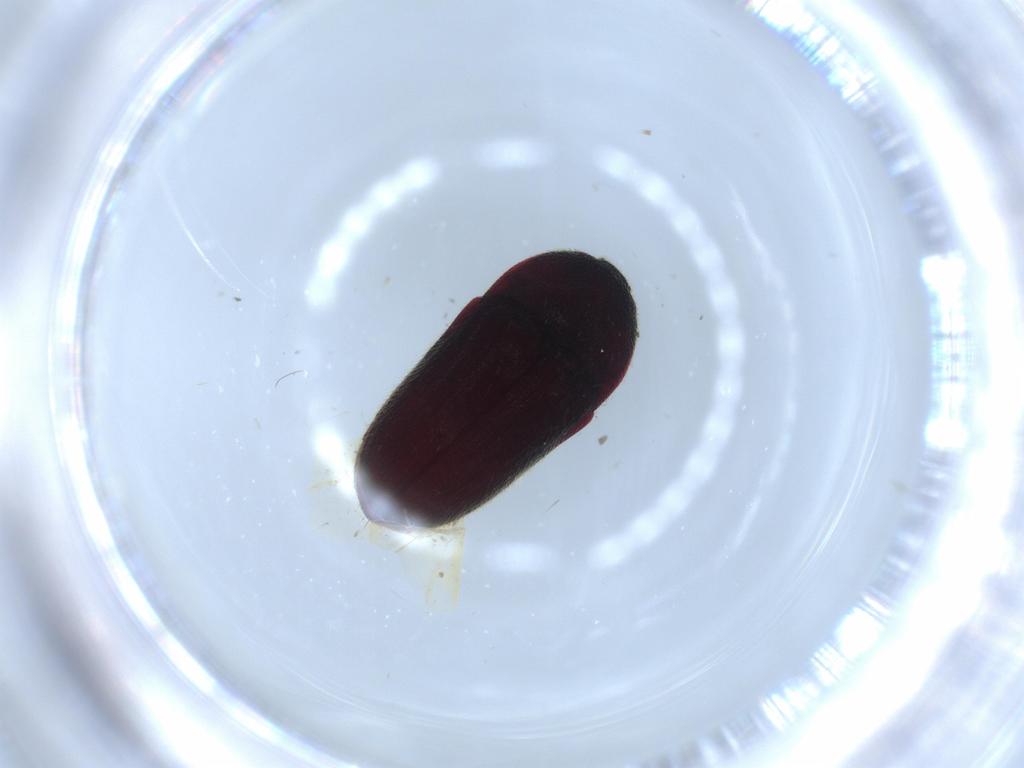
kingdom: Animalia
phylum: Arthropoda
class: Insecta
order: Coleoptera
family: Throscidae
